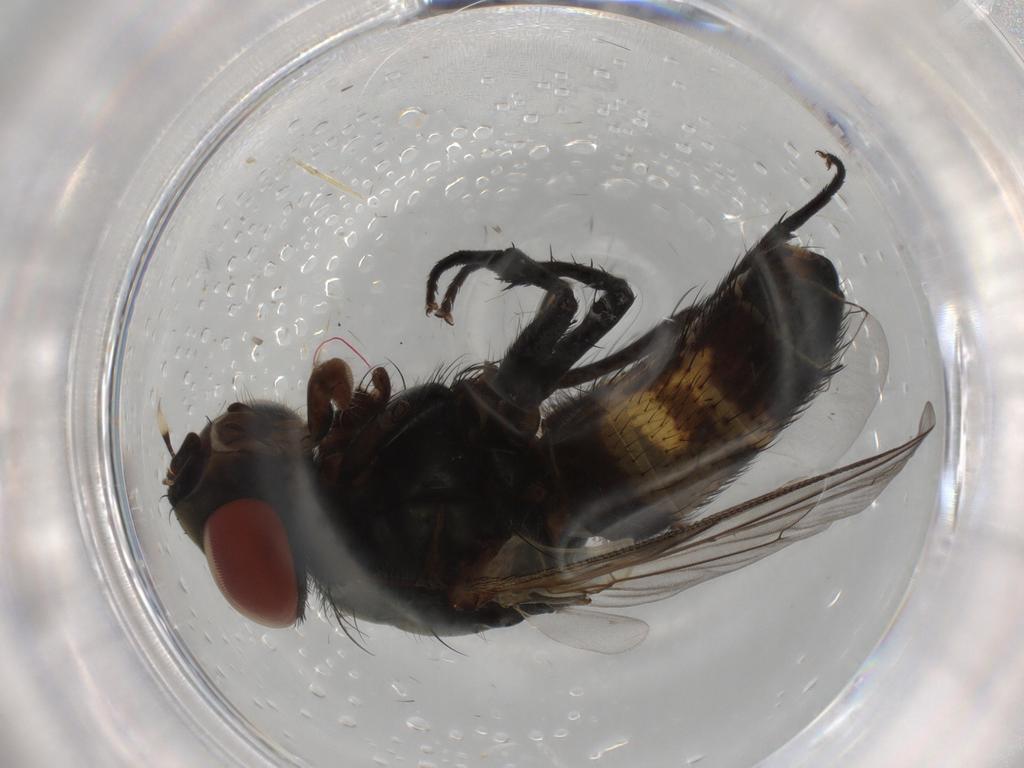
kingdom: Animalia
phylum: Arthropoda
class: Insecta
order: Diptera
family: Sarcophagidae
